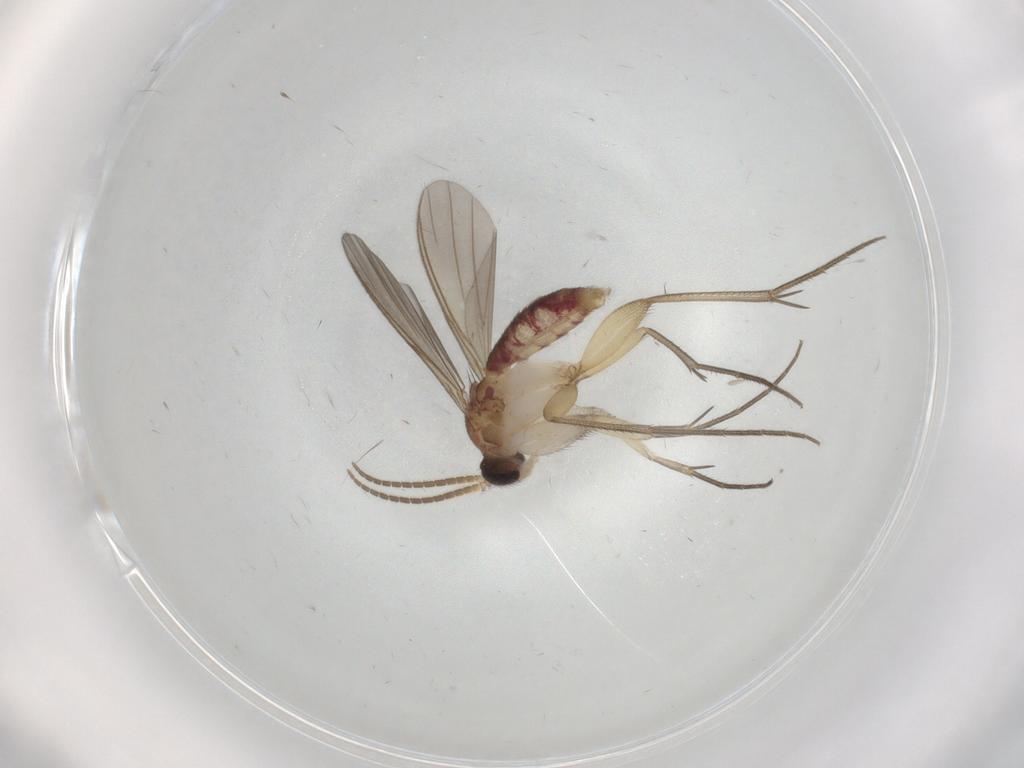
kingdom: Animalia
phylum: Arthropoda
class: Insecta
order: Diptera
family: Mycetophilidae
